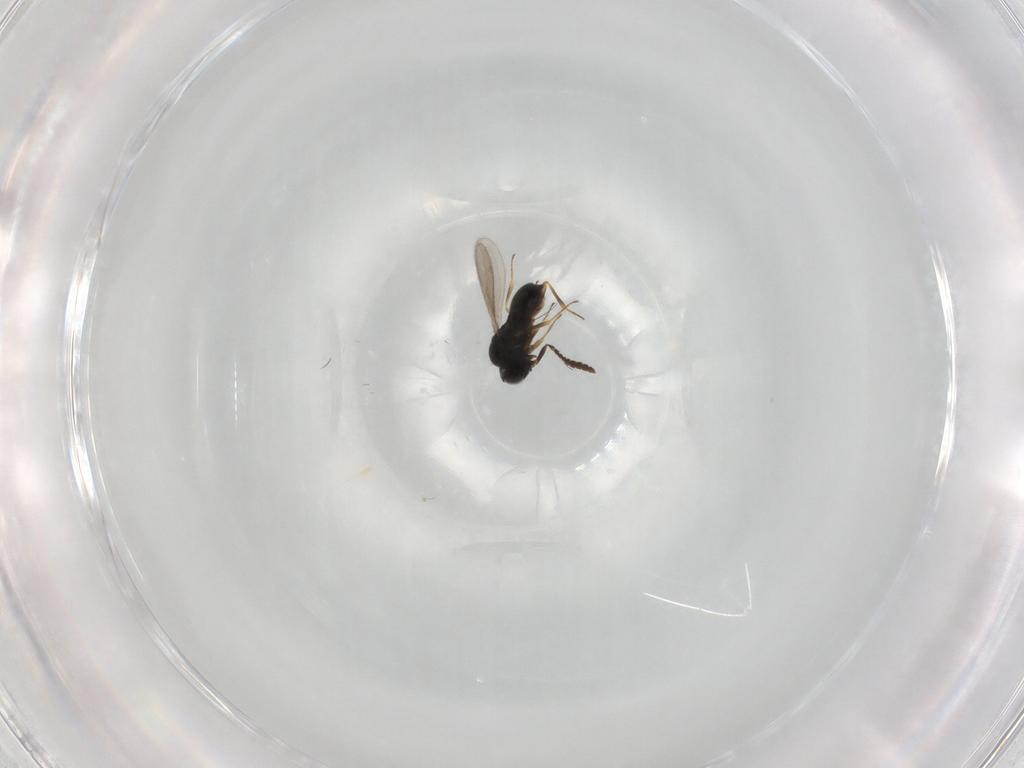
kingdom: Animalia
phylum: Arthropoda
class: Insecta
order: Hymenoptera
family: Scelionidae
